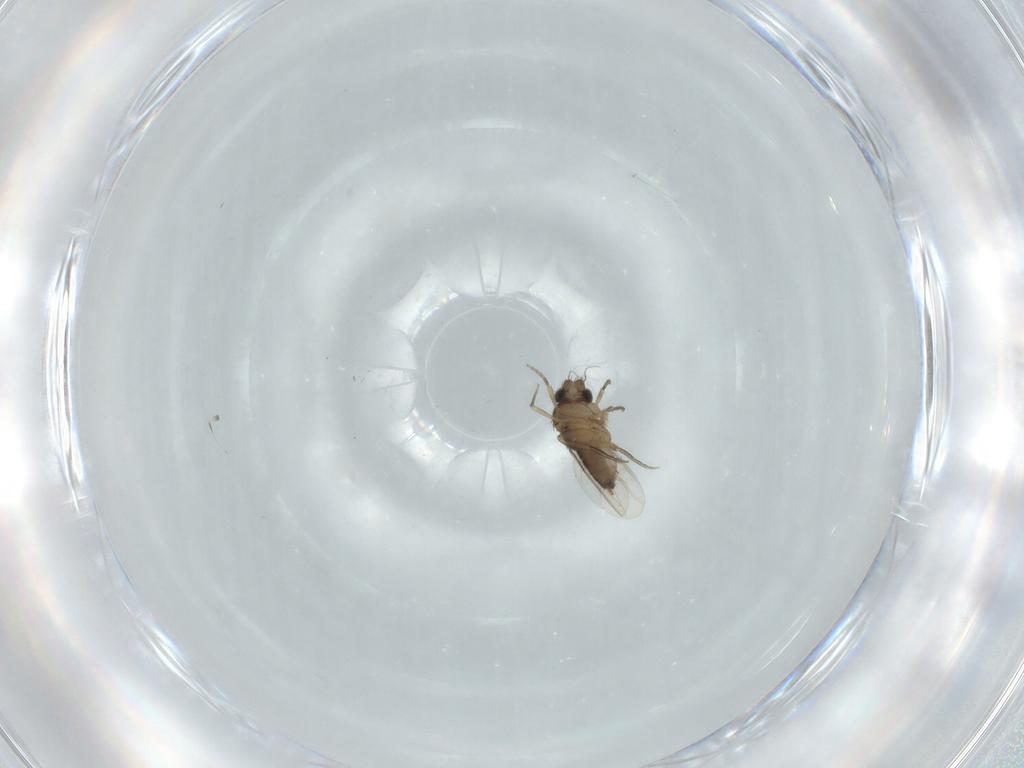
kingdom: Animalia
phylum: Arthropoda
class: Insecta
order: Diptera
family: Phoridae
